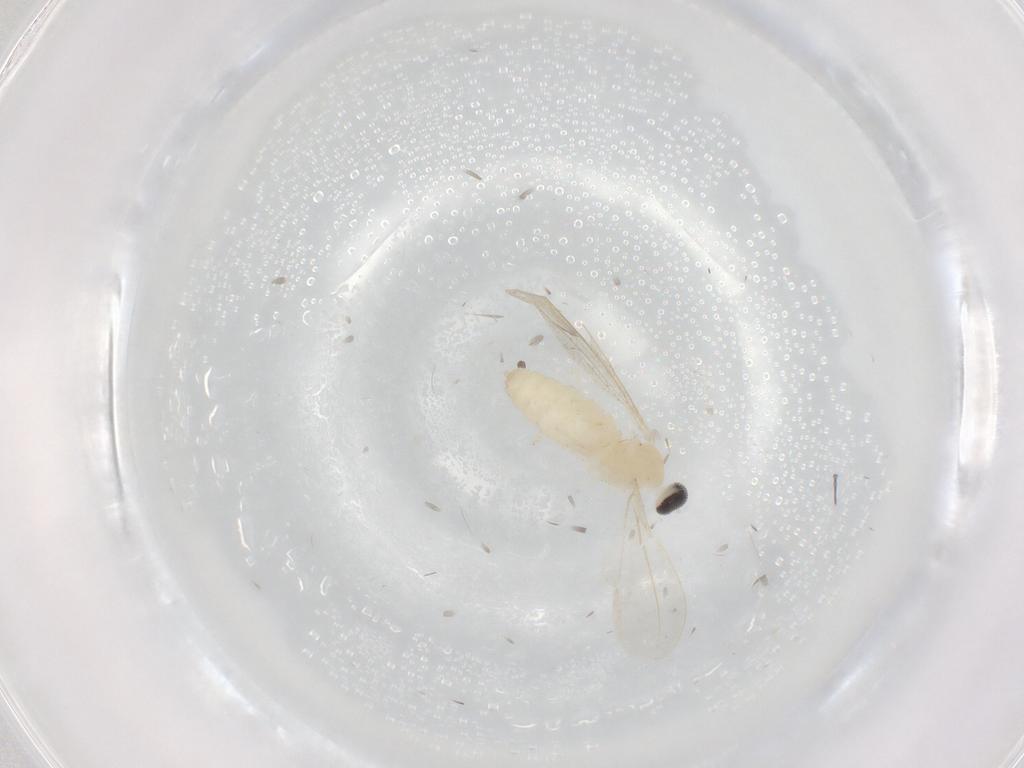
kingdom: Animalia
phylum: Arthropoda
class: Insecta
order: Diptera
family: Cecidomyiidae
